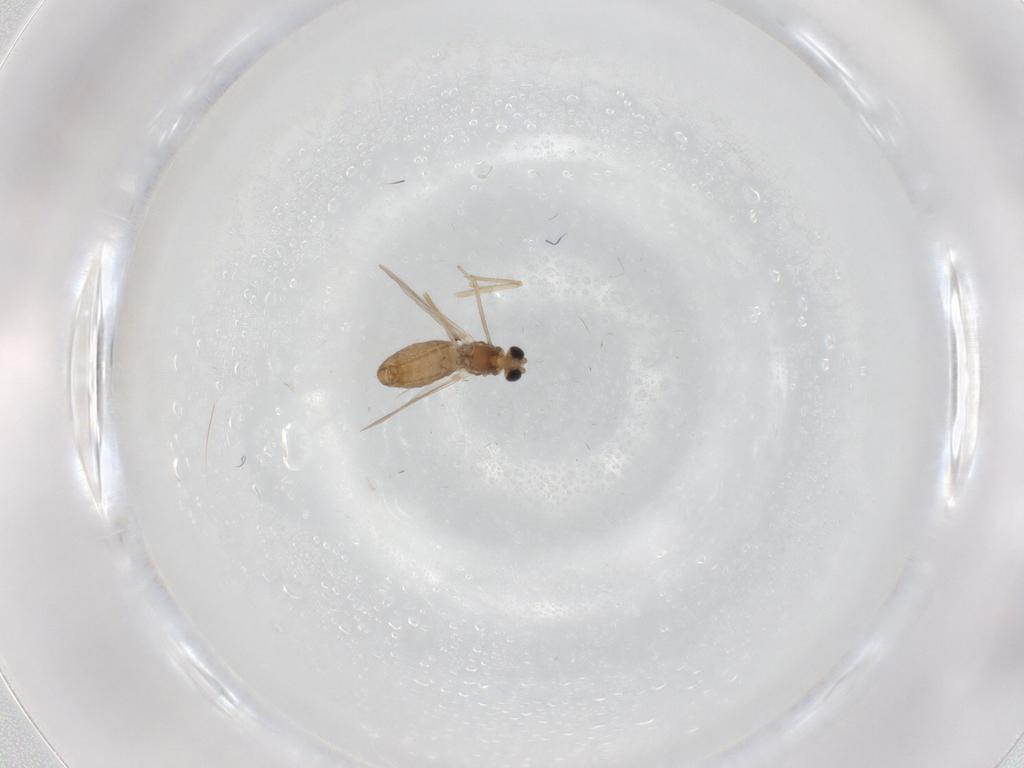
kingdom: Animalia
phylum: Arthropoda
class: Insecta
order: Diptera
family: Chironomidae
